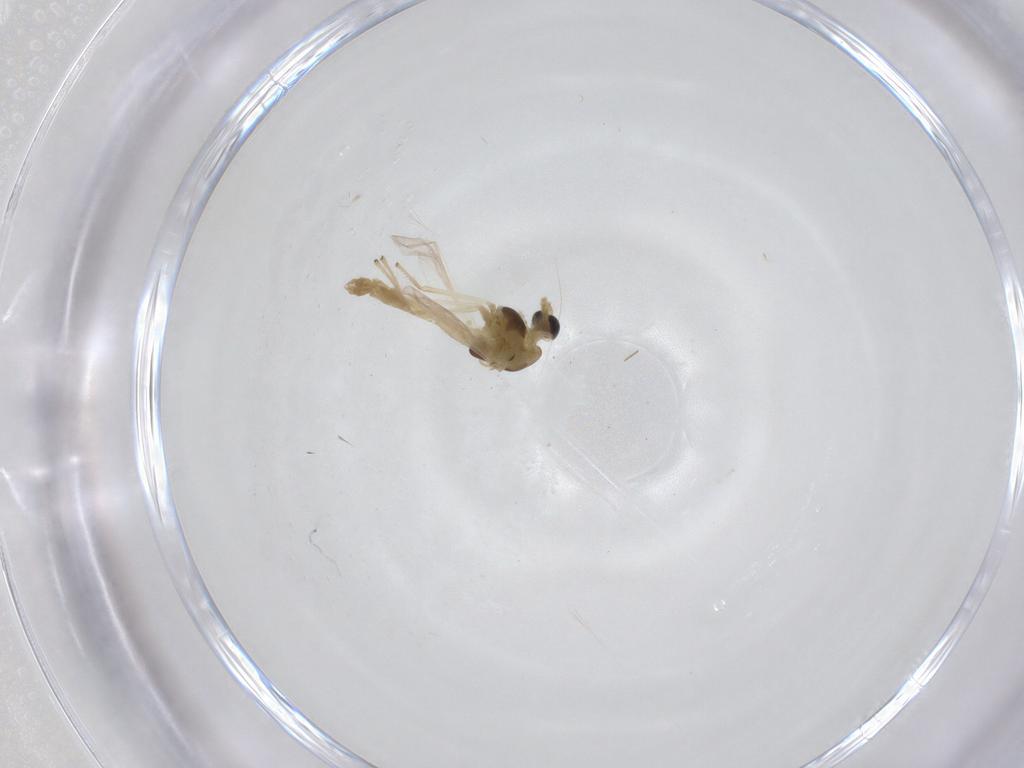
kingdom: Animalia
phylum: Arthropoda
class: Insecta
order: Diptera
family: Chironomidae
